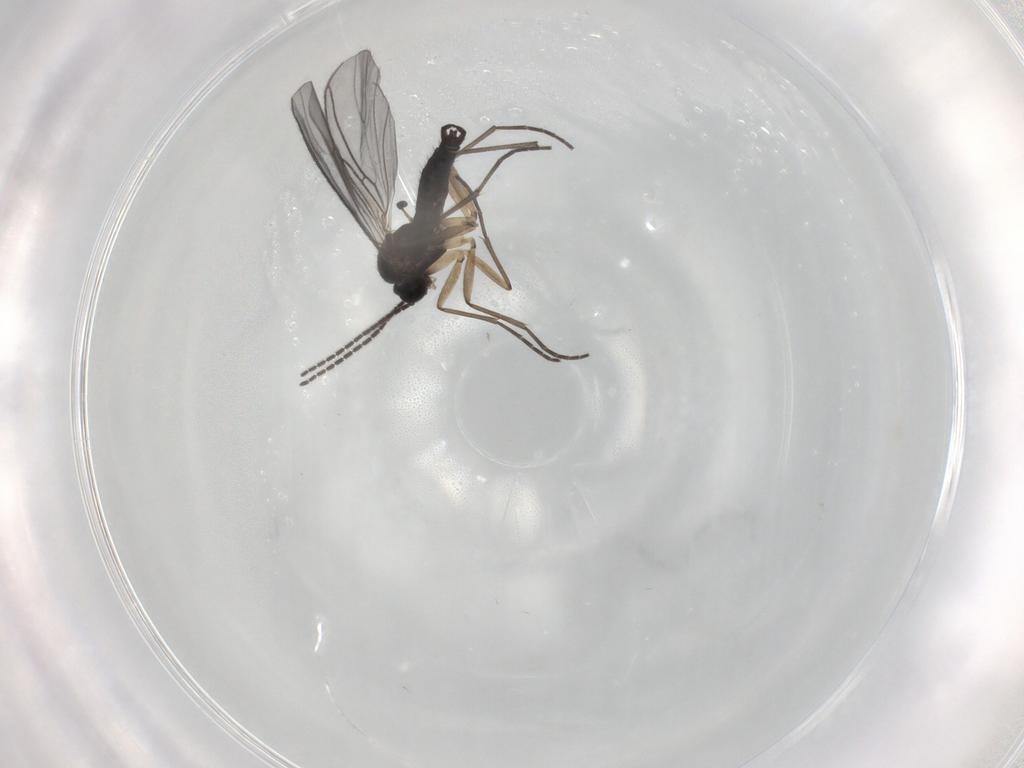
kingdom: Animalia
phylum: Arthropoda
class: Insecta
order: Diptera
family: Sciaridae
